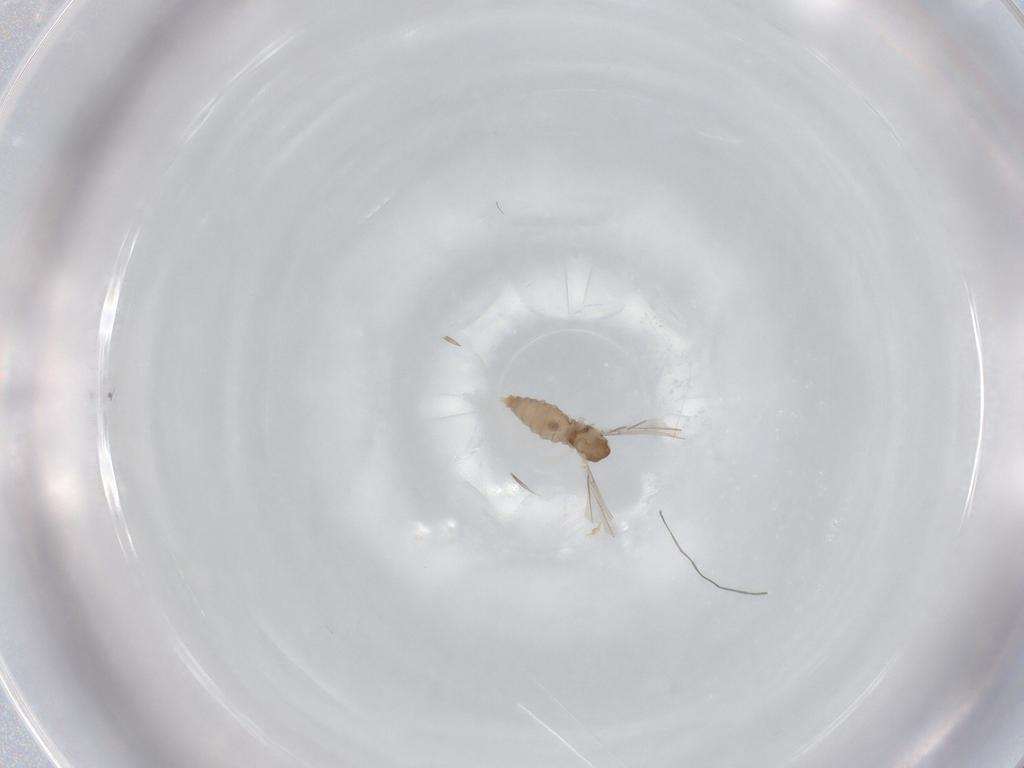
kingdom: Animalia
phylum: Arthropoda
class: Insecta
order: Diptera
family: Cecidomyiidae
